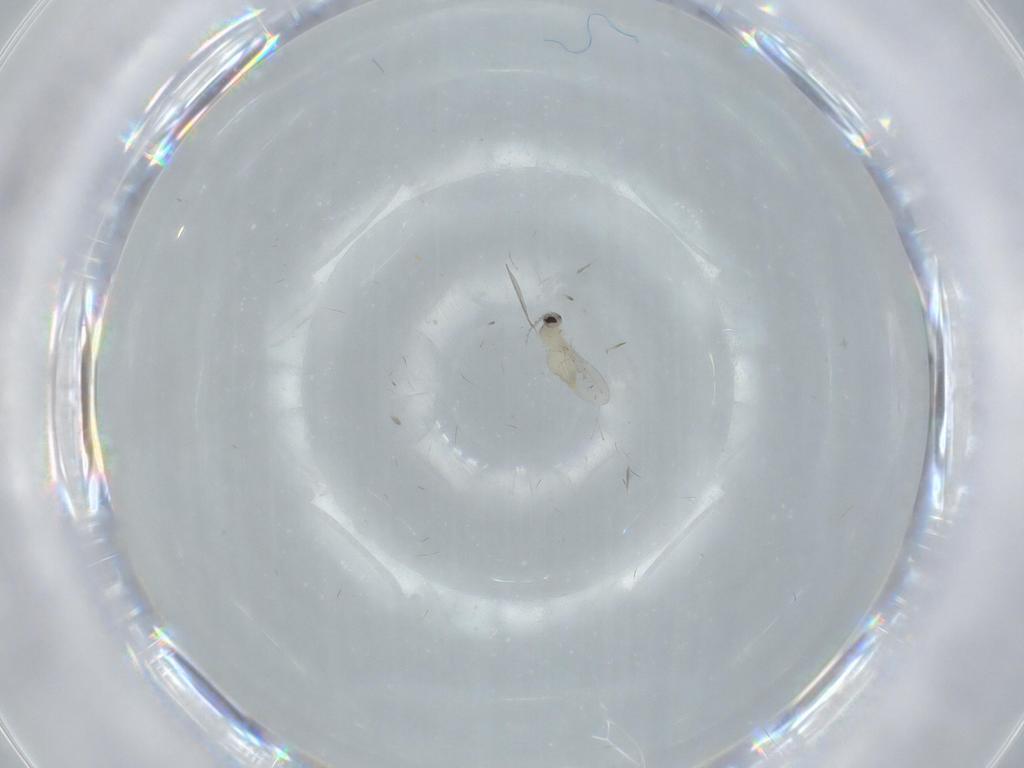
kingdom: Animalia
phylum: Arthropoda
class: Insecta
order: Diptera
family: Cecidomyiidae
